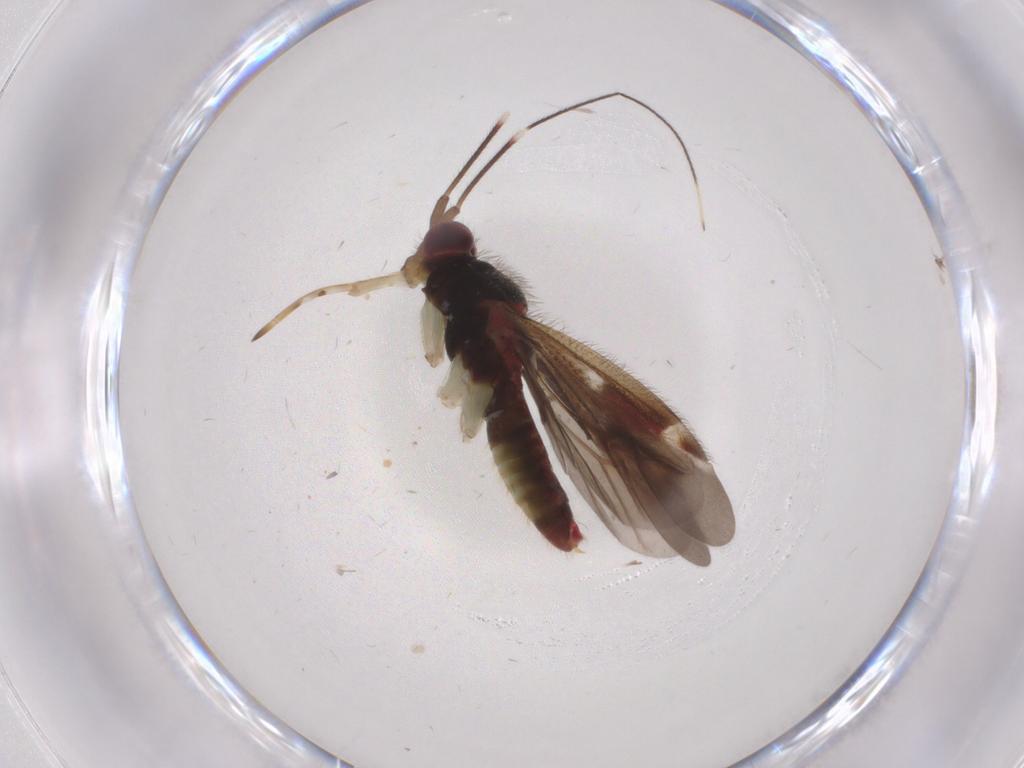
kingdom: Animalia
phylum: Arthropoda
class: Insecta
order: Hemiptera
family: Miridae
